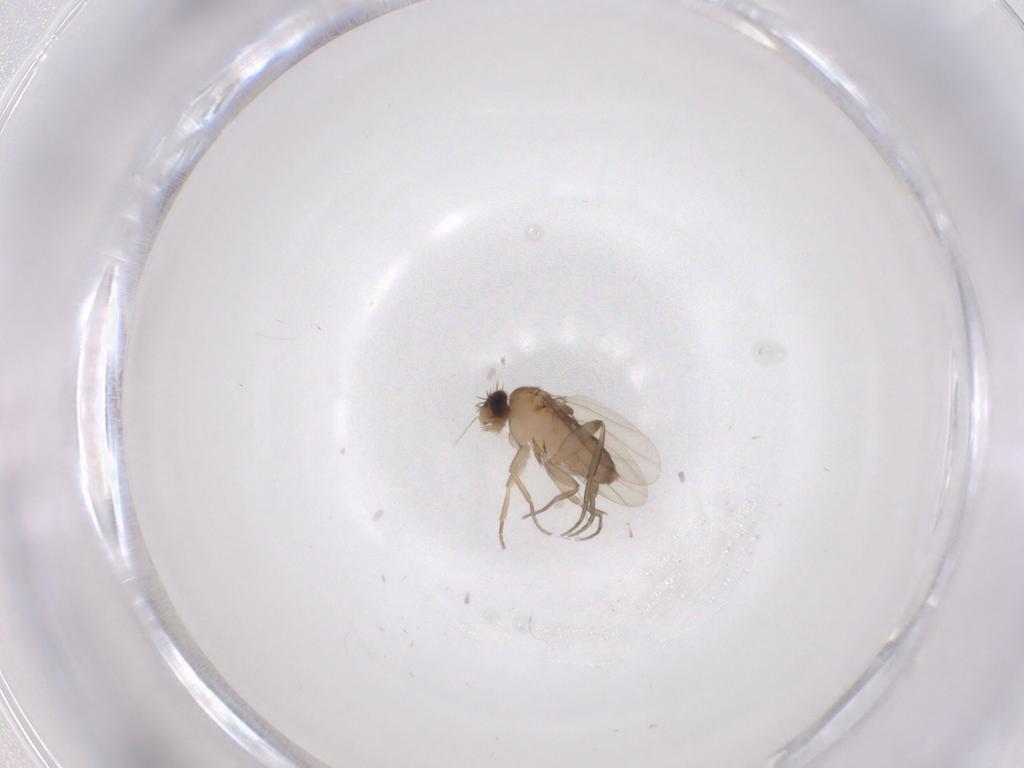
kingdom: Animalia
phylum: Arthropoda
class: Insecta
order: Diptera
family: Phoridae
